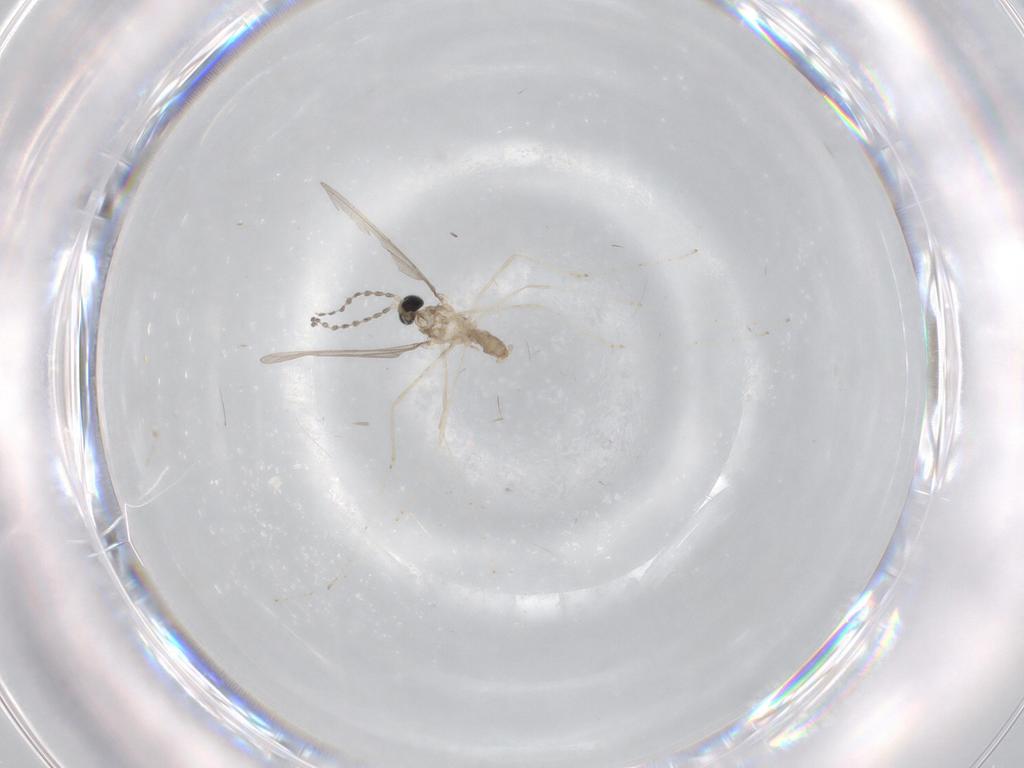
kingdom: Animalia
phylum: Arthropoda
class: Insecta
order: Diptera
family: Cecidomyiidae
